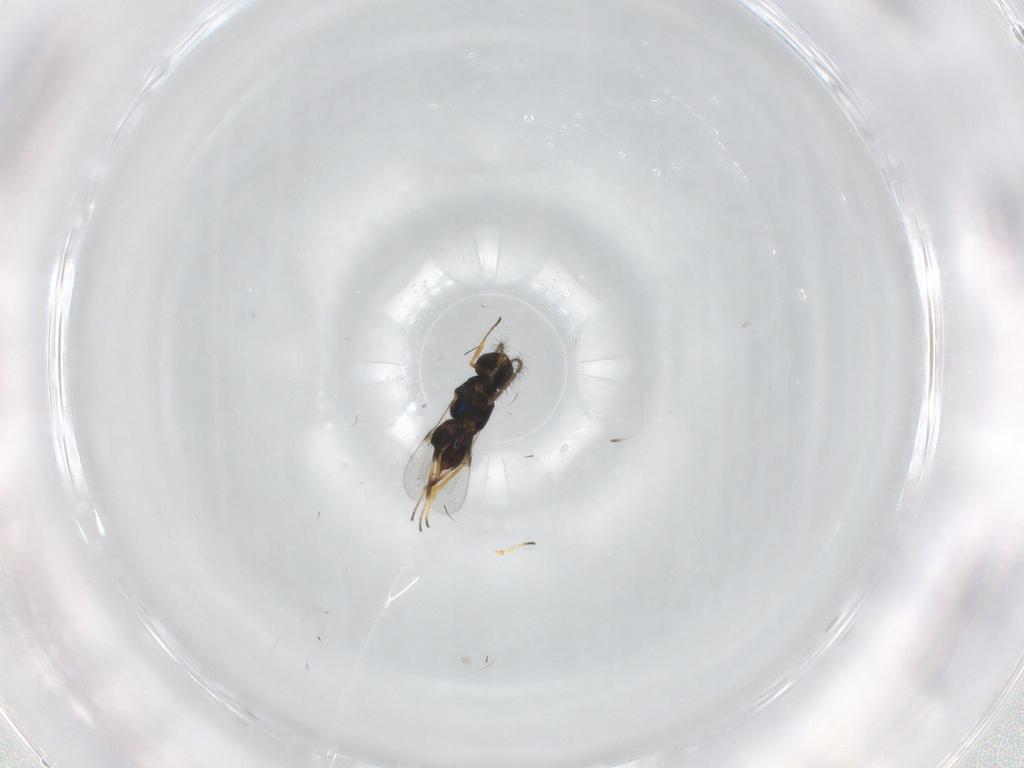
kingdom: Animalia
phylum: Arthropoda
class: Insecta
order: Hymenoptera
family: Encyrtidae
